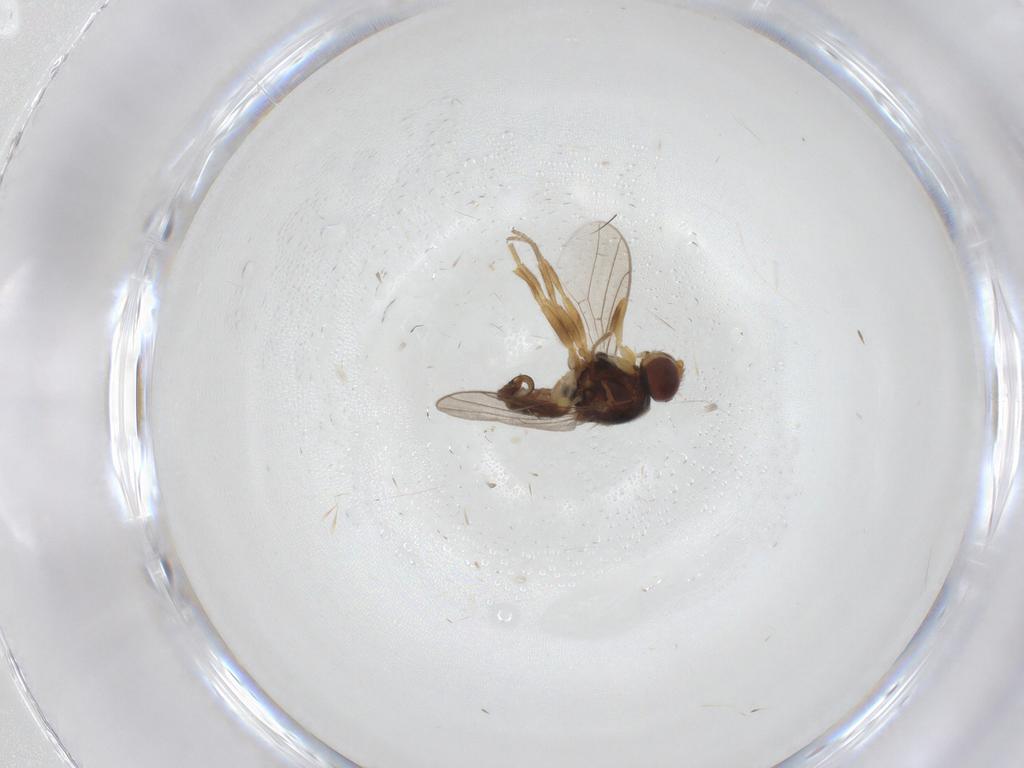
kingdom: Animalia
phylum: Arthropoda
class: Insecta
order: Diptera
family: Chloropidae
